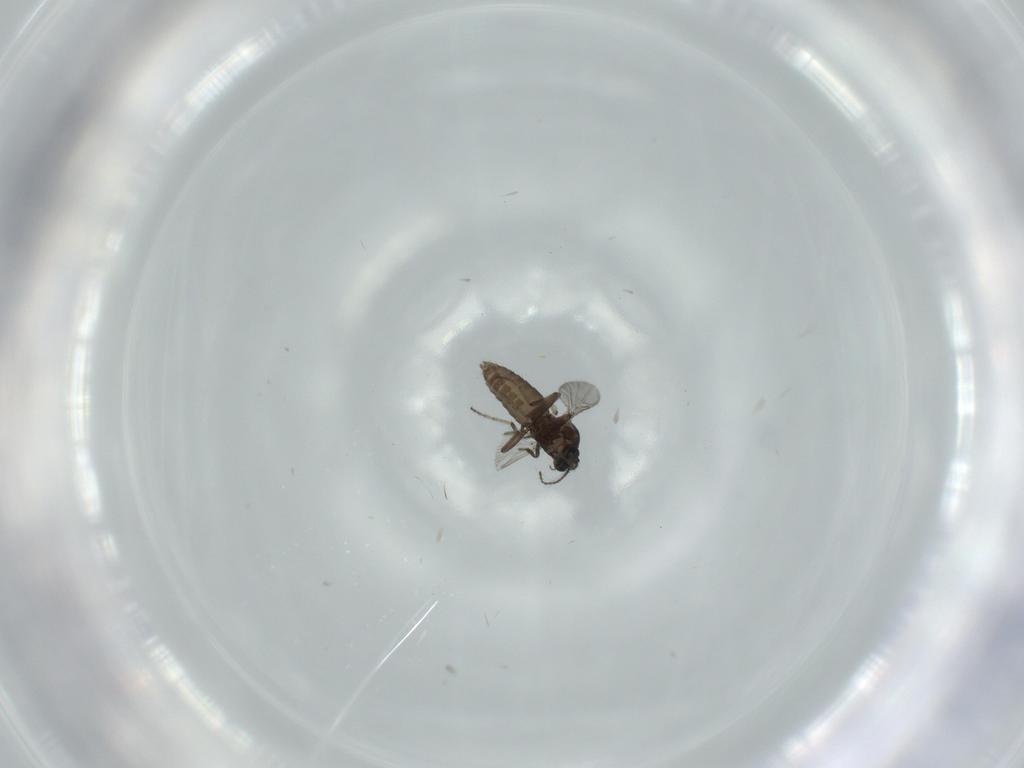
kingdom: Animalia
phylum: Arthropoda
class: Insecta
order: Diptera
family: Ceratopogonidae
